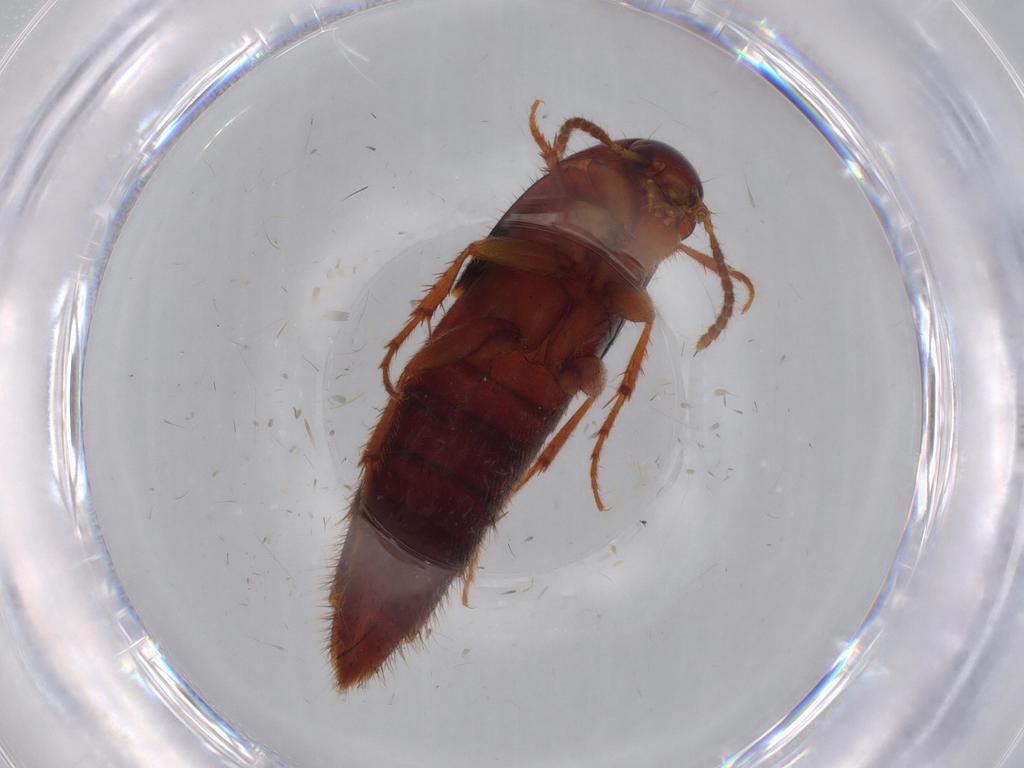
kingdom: Animalia
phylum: Arthropoda
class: Insecta
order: Coleoptera
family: Staphylinidae
